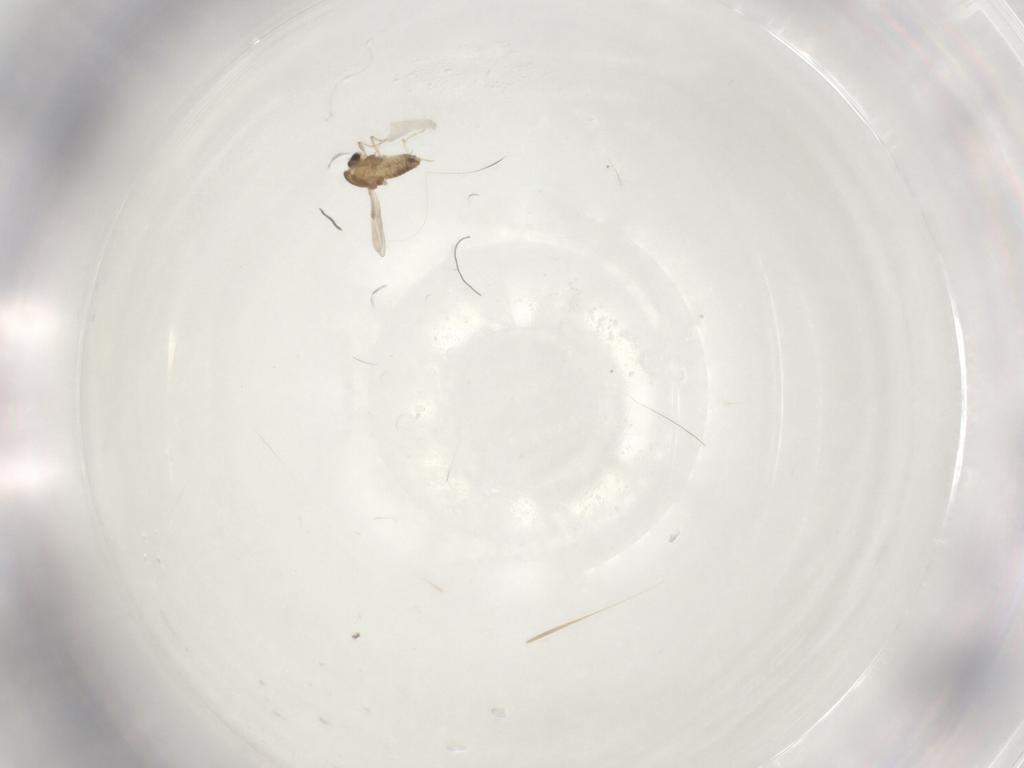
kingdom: Animalia
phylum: Arthropoda
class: Insecta
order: Diptera
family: Chironomidae
